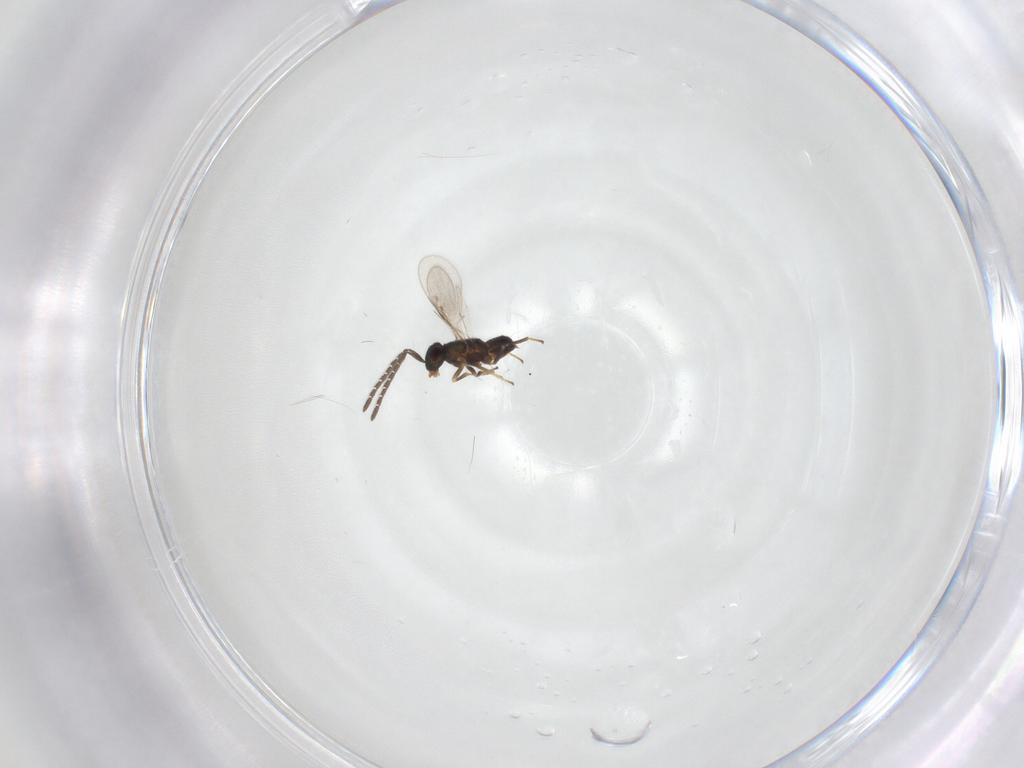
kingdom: Animalia
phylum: Arthropoda
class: Insecta
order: Hymenoptera
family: Encyrtidae
